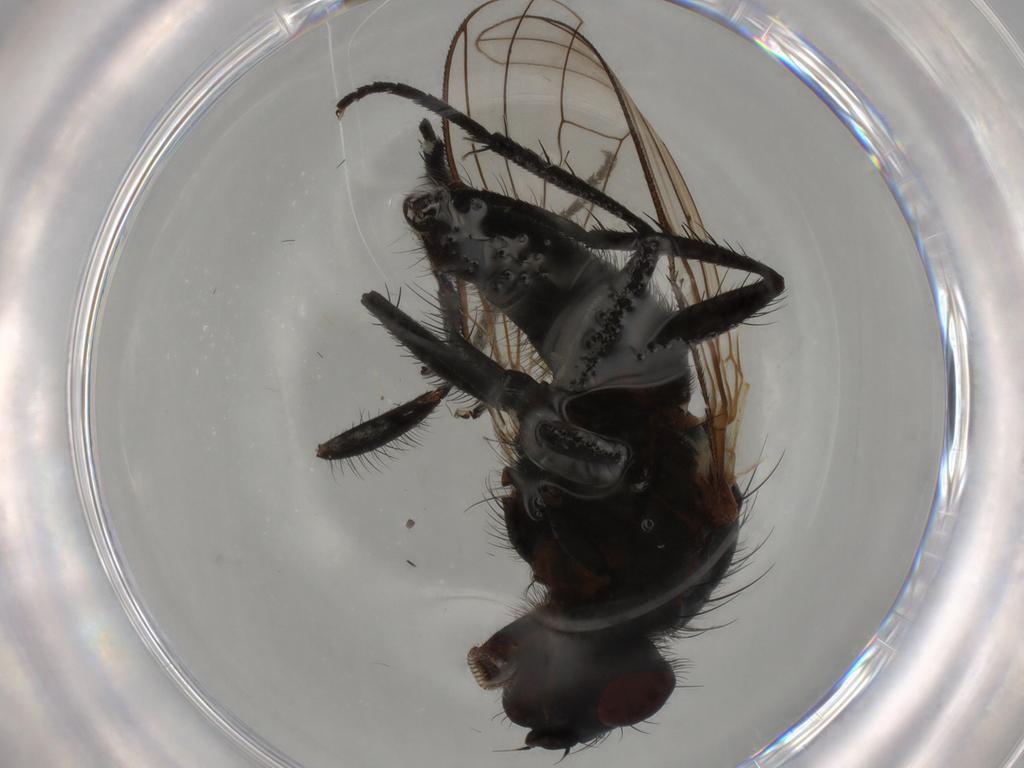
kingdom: Animalia
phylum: Arthropoda
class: Insecta
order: Diptera
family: Anthomyiidae
